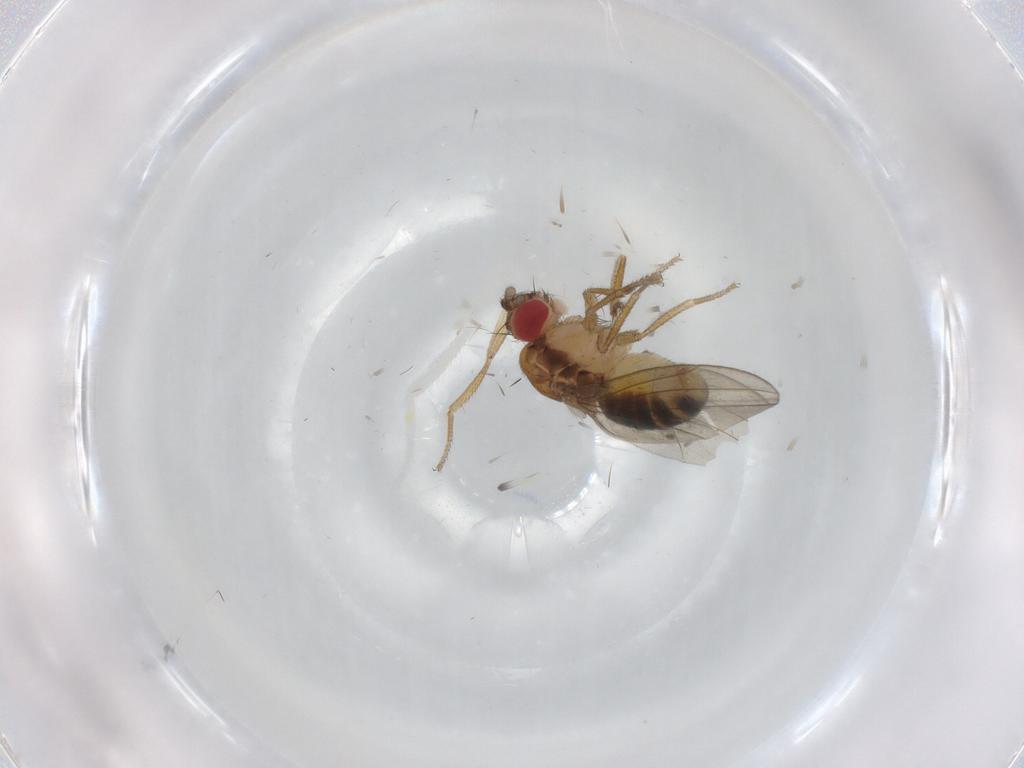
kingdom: Animalia
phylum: Arthropoda
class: Insecta
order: Diptera
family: Drosophilidae
